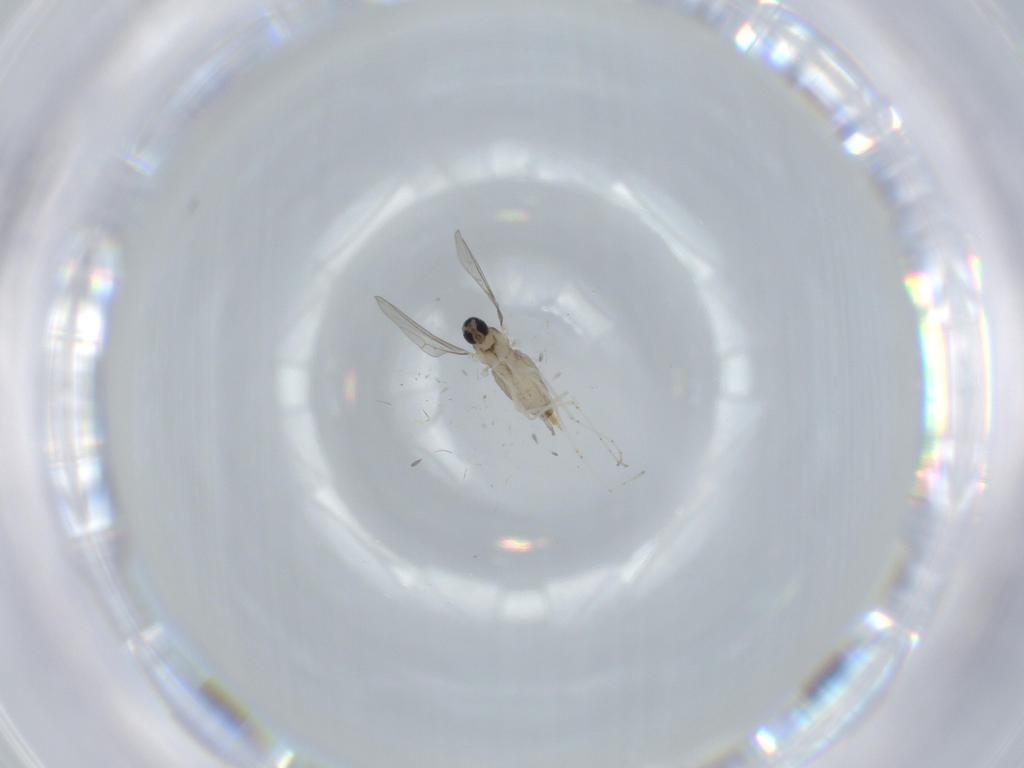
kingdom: Animalia
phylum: Arthropoda
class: Insecta
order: Diptera
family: Cecidomyiidae
